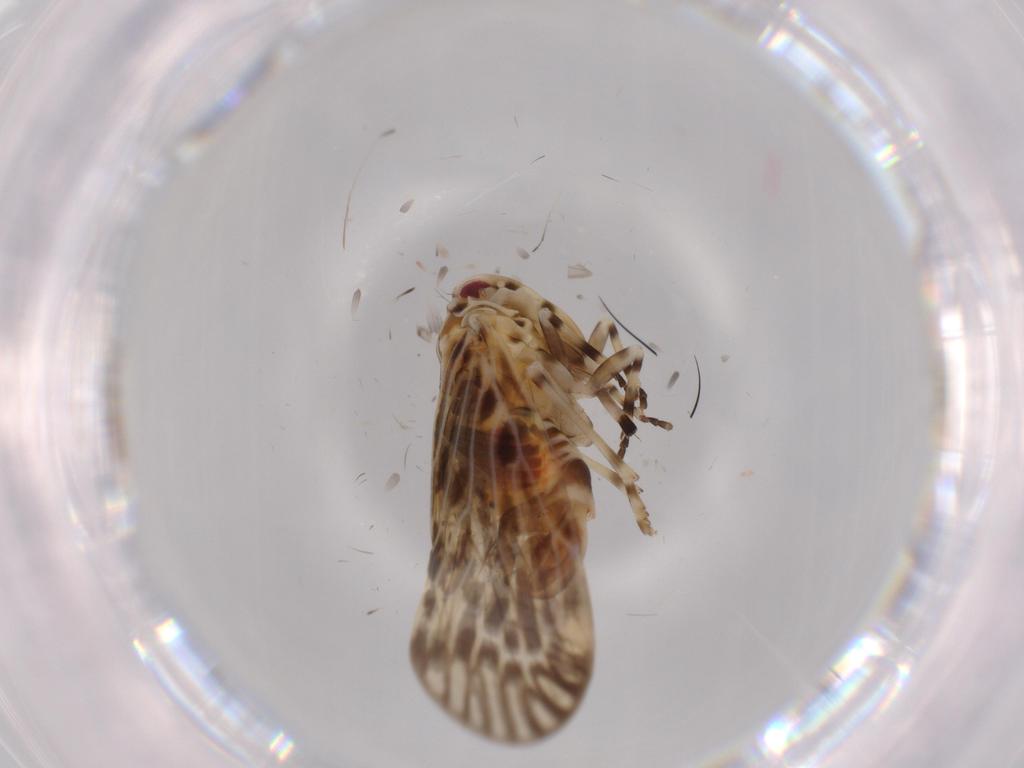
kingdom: Animalia
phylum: Arthropoda
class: Insecta
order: Hemiptera
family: Derbidae
